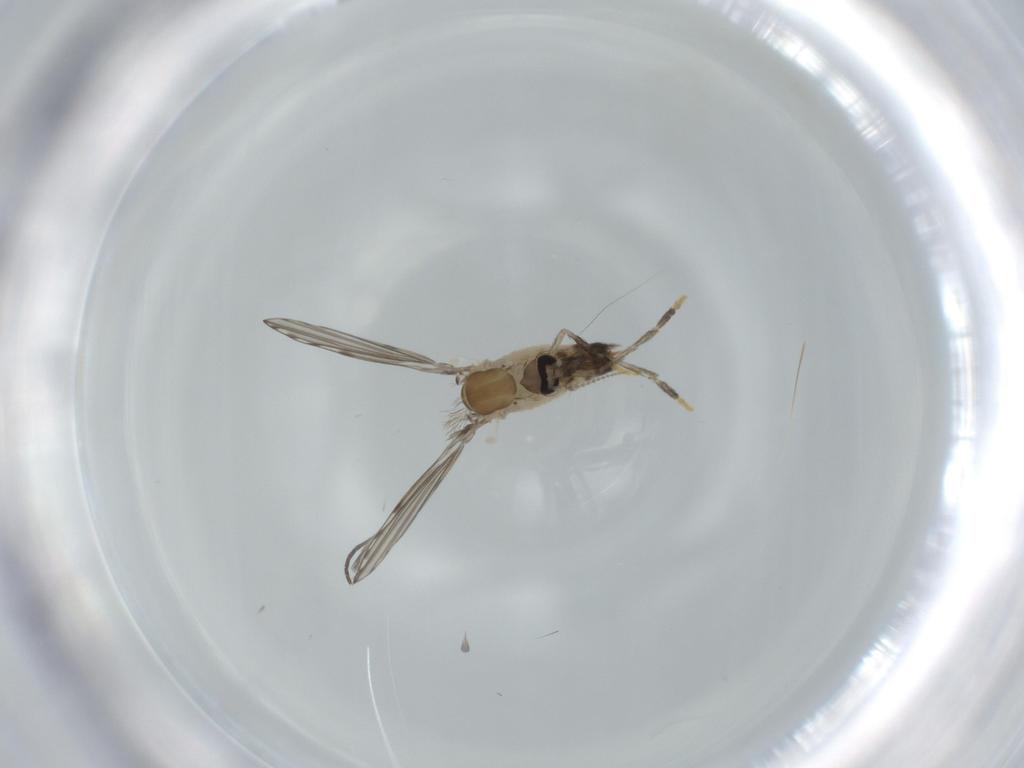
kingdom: Animalia
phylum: Arthropoda
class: Insecta
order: Diptera
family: Psychodidae
